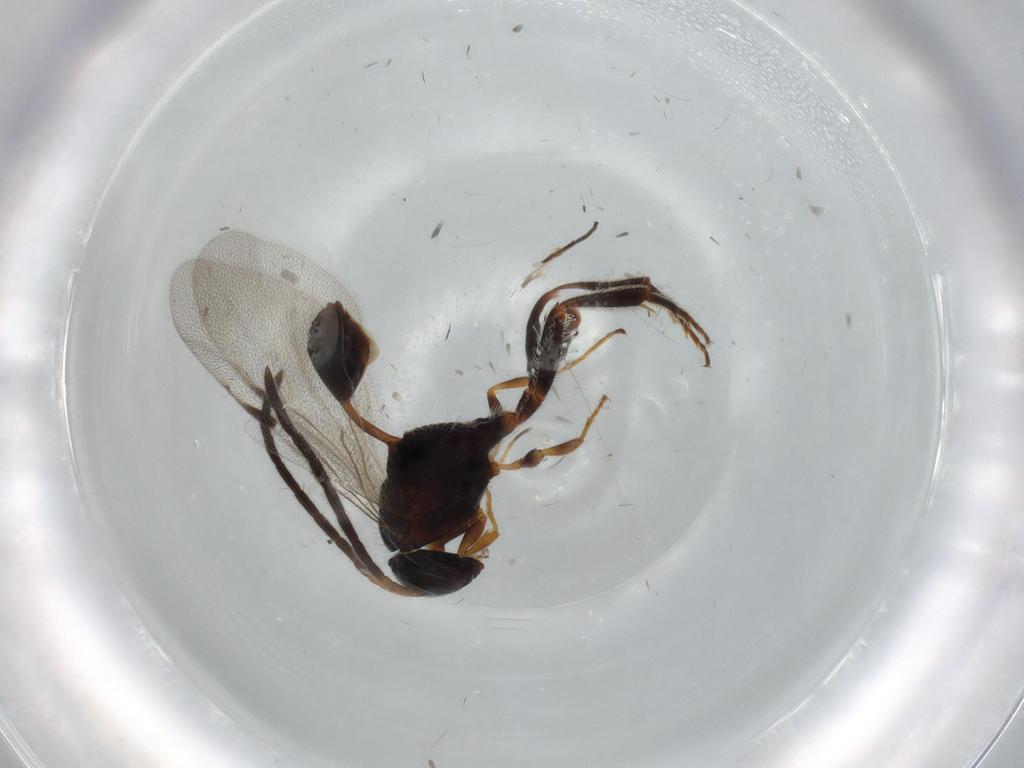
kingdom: Animalia
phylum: Arthropoda
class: Insecta
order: Hymenoptera
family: Evaniidae
